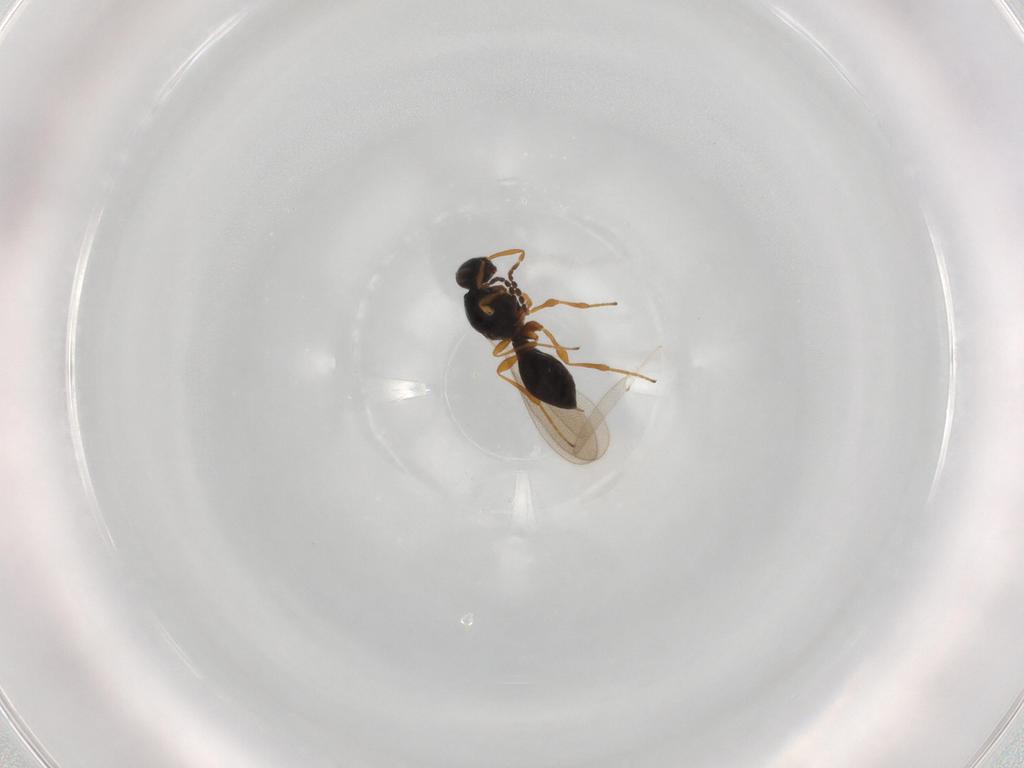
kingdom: Animalia
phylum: Arthropoda
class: Insecta
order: Diptera
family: Mythicomyiidae
